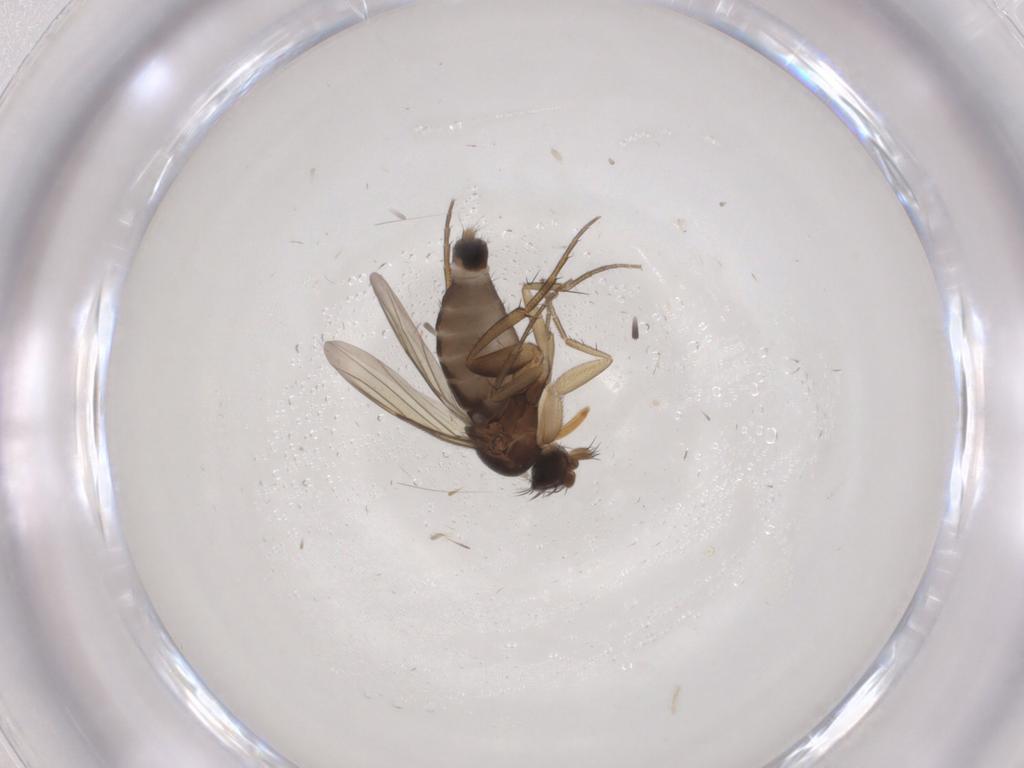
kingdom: Animalia
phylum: Arthropoda
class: Insecta
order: Diptera
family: Phoridae
